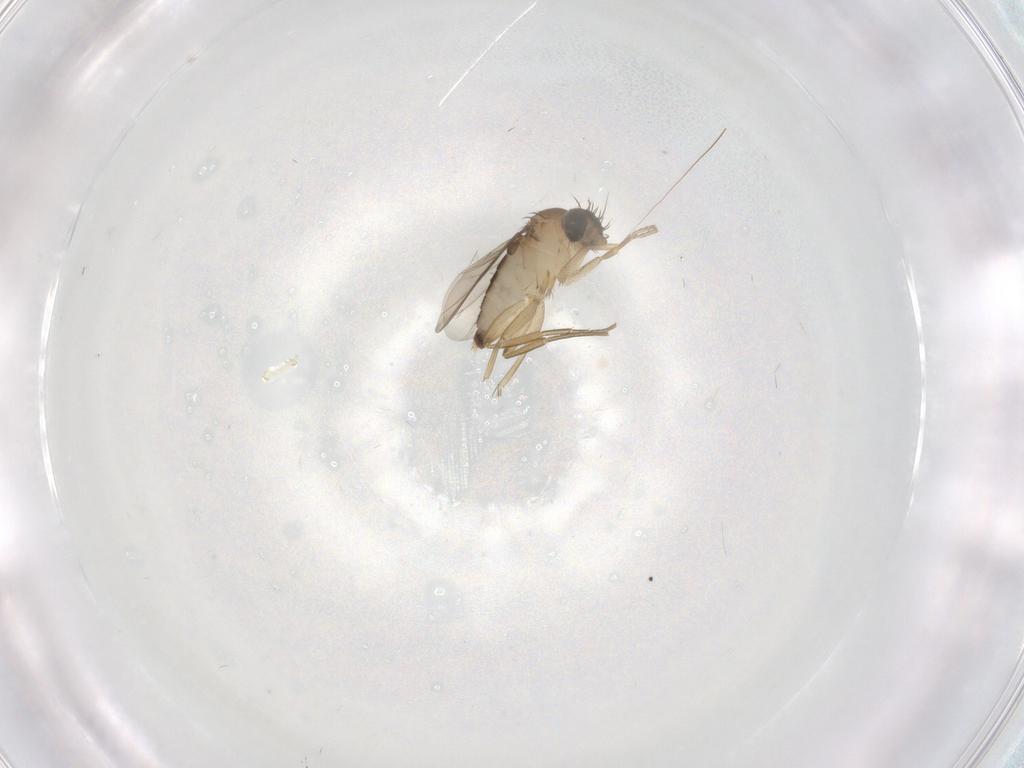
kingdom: Animalia
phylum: Arthropoda
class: Insecta
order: Diptera
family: Phoridae
